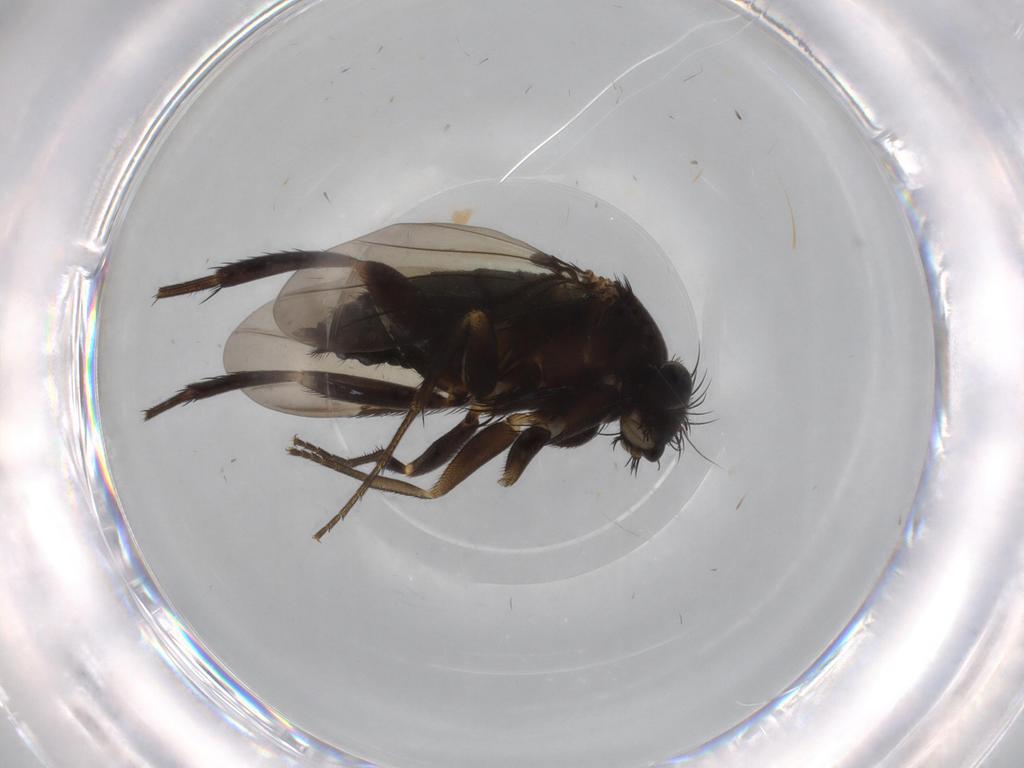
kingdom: Animalia
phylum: Arthropoda
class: Insecta
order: Diptera
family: Phoridae
